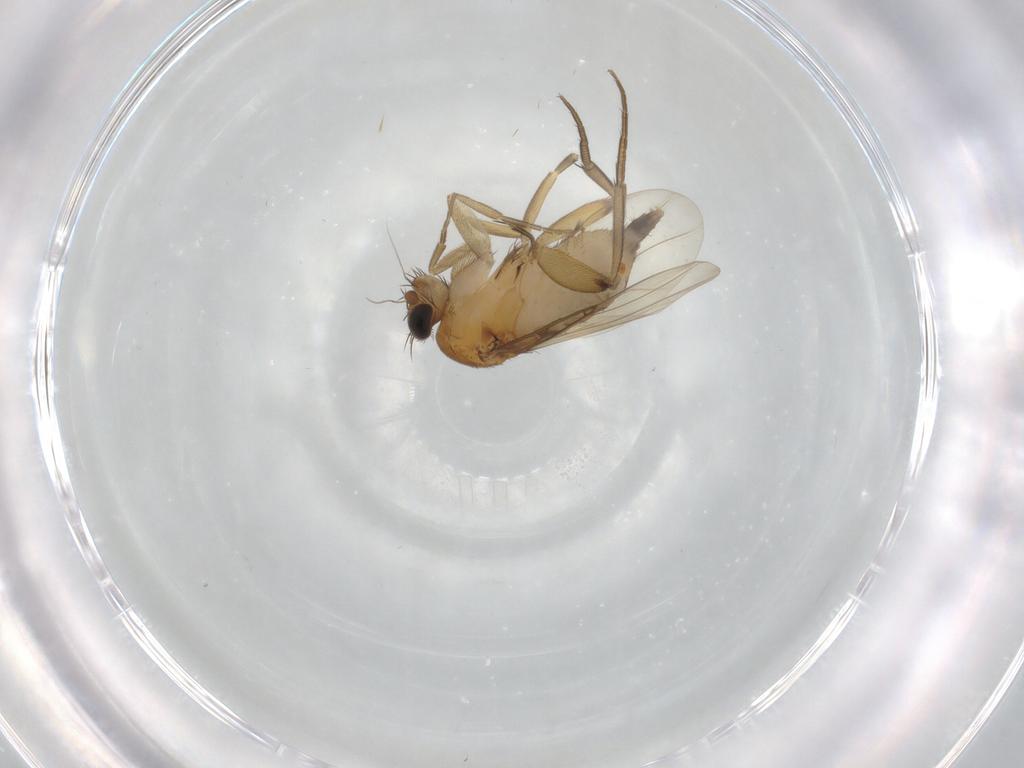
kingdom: Animalia
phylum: Arthropoda
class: Insecta
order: Diptera
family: Phoridae
